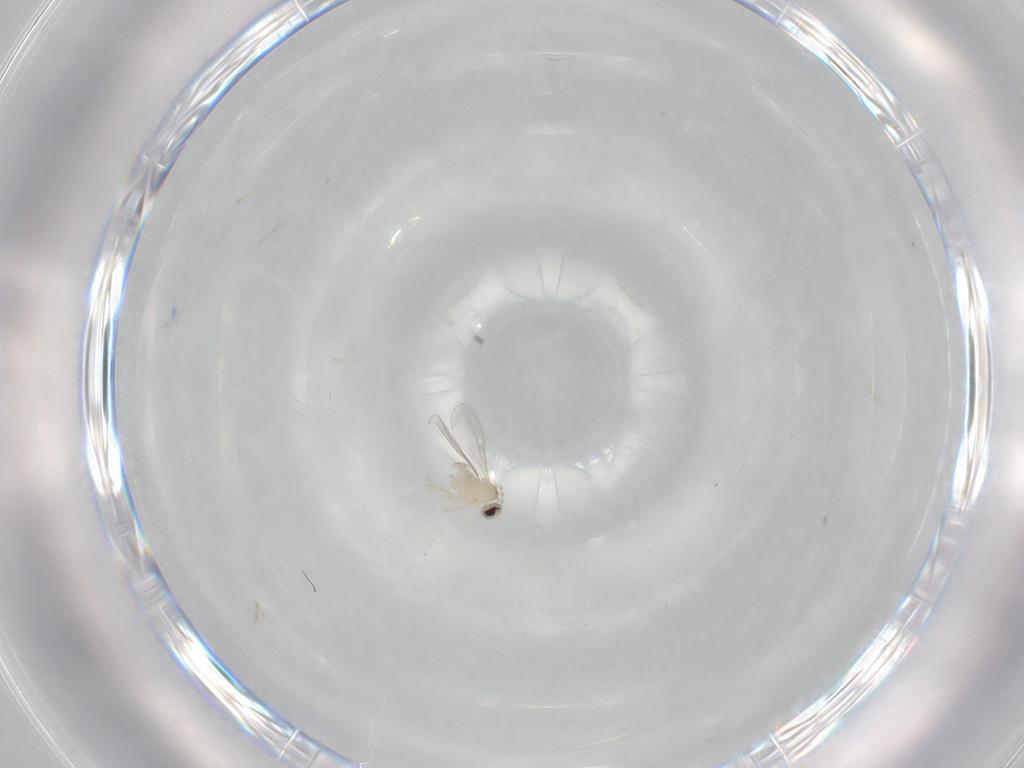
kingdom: Animalia
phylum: Arthropoda
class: Insecta
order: Diptera
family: Cecidomyiidae
